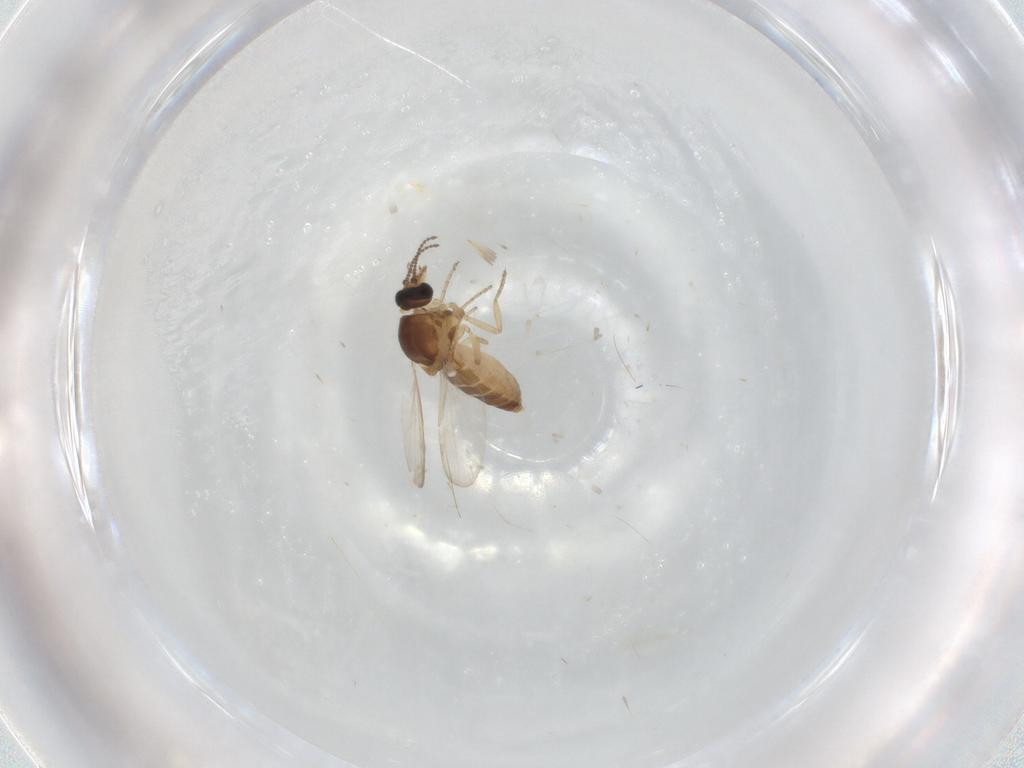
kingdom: Animalia
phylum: Arthropoda
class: Insecta
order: Diptera
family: Ceratopogonidae
